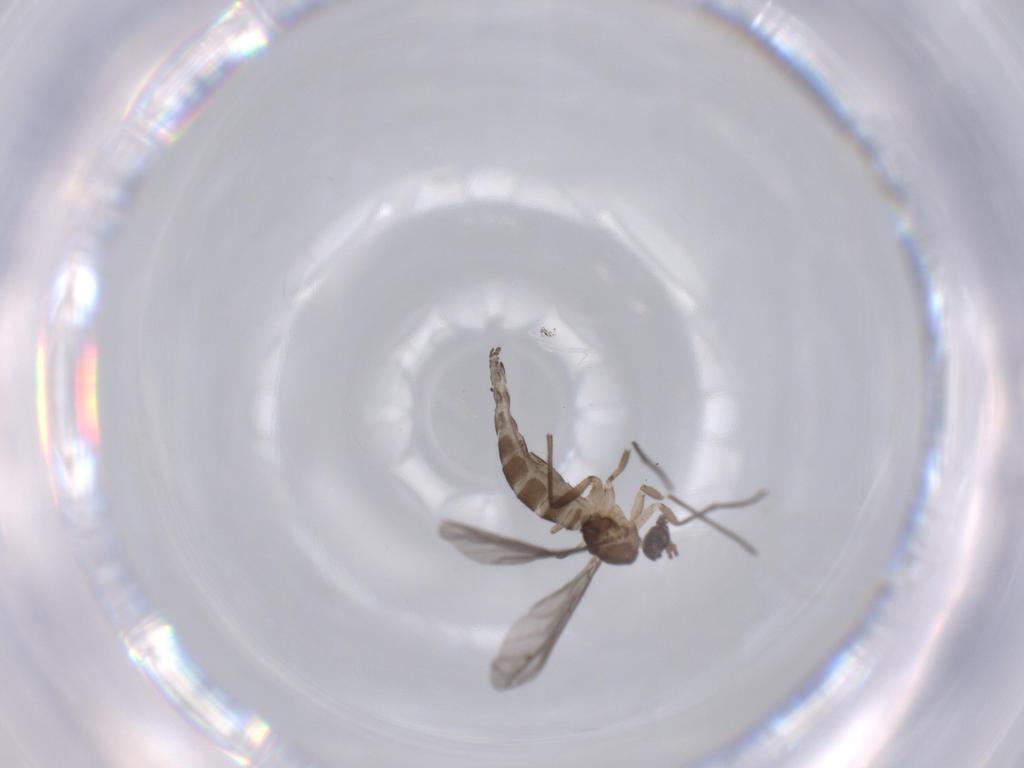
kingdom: Animalia
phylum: Arthropoda
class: Insecta
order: Diptera
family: Sciaridae
